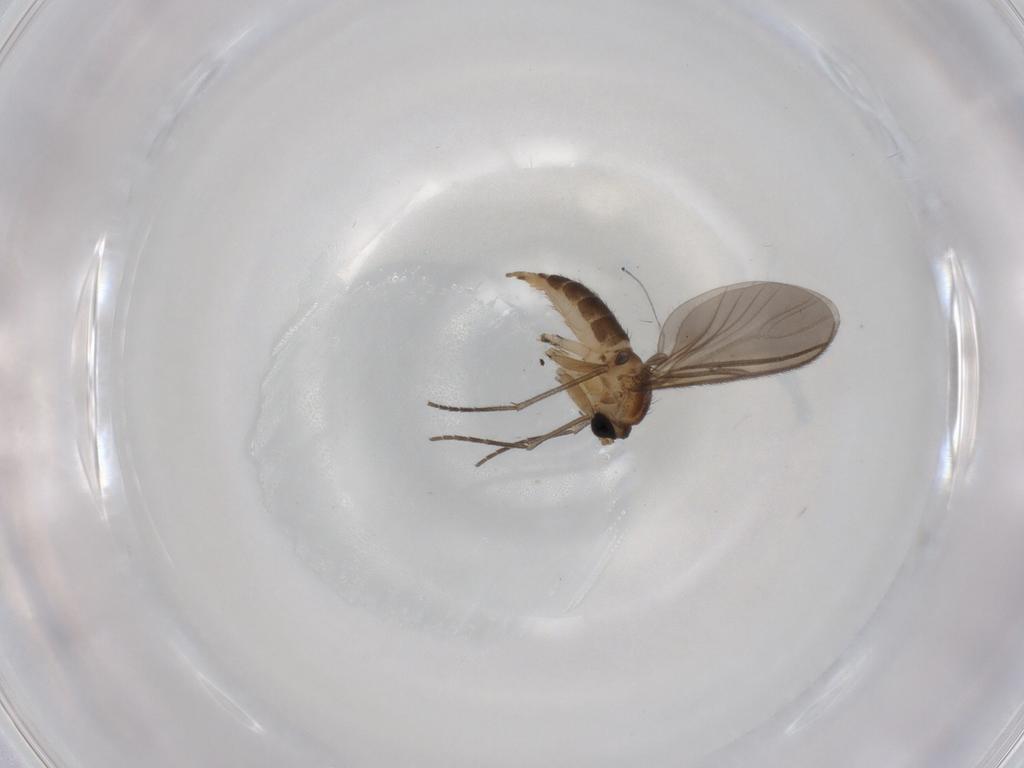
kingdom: Animalia
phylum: Arthropoda
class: Insecta
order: Diptera
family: Sciaridae
